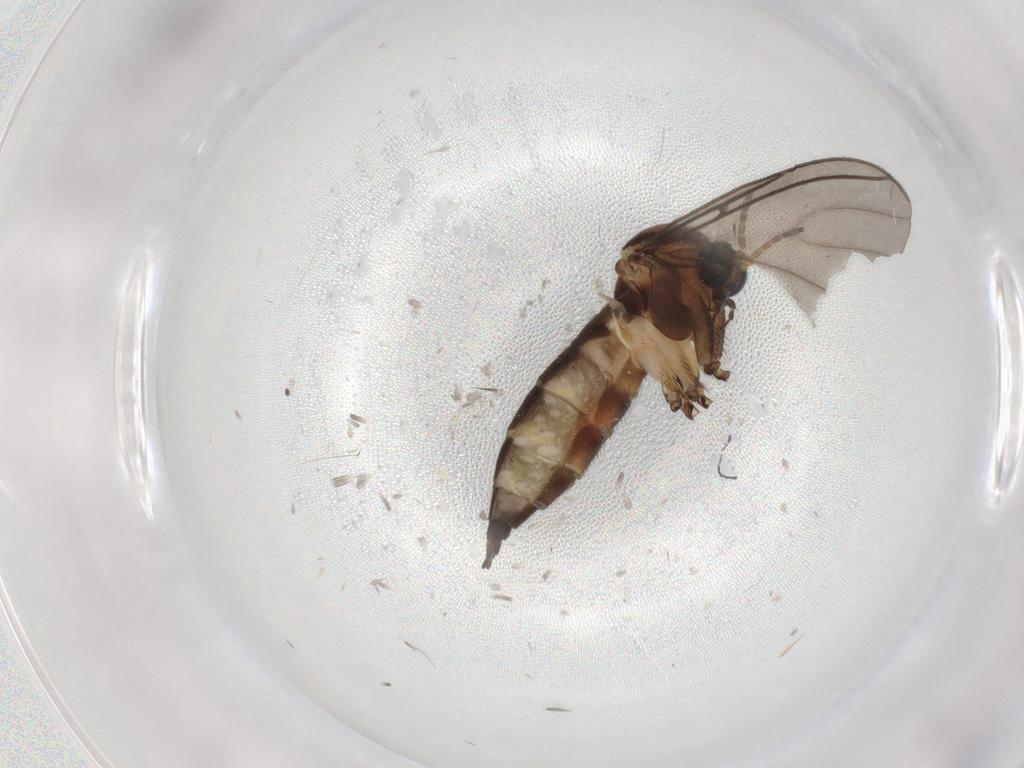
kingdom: Animalia
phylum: Arthropoda
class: Insecta
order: Diptera
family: Sciaridae
